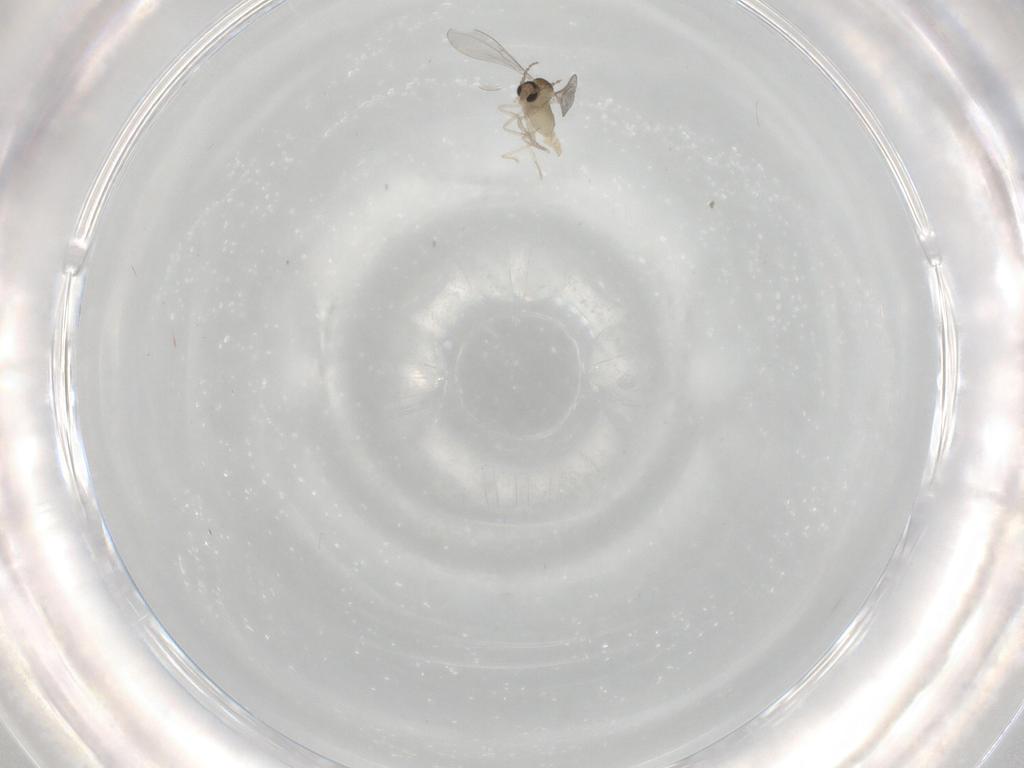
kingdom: Animalia
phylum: Arthropoda
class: Insecta
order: Diptera
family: Cecidomyiidae
